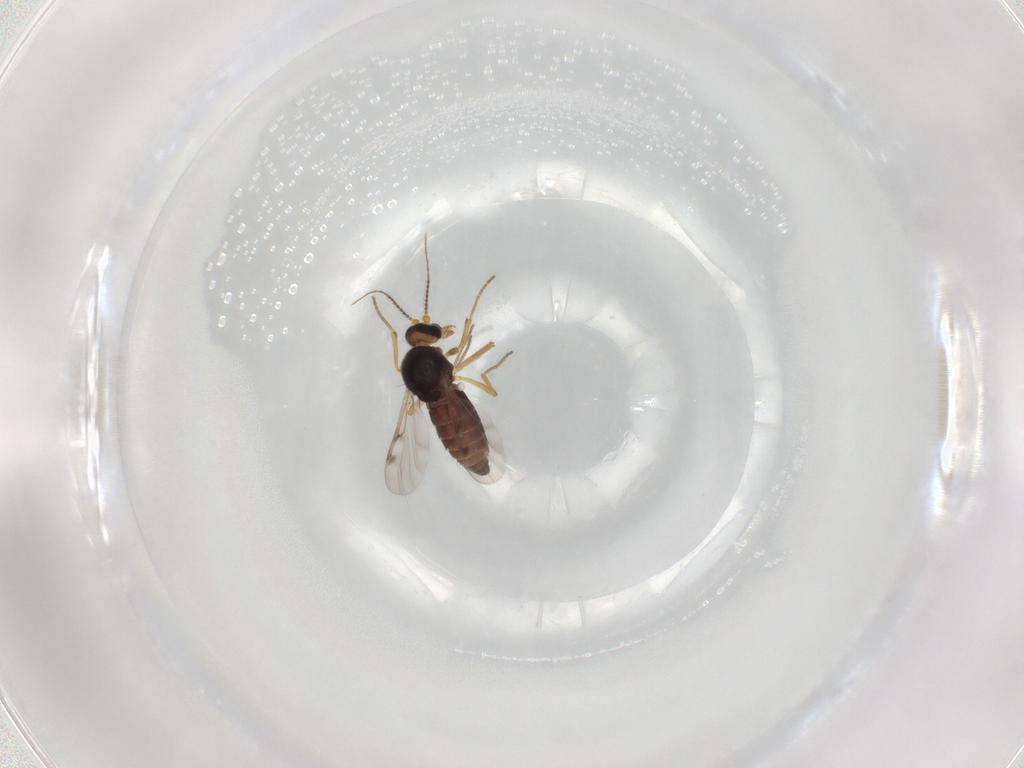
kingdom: Animalia
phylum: Arthropoda
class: Insecta
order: Diptera
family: Ceratopogonidae
